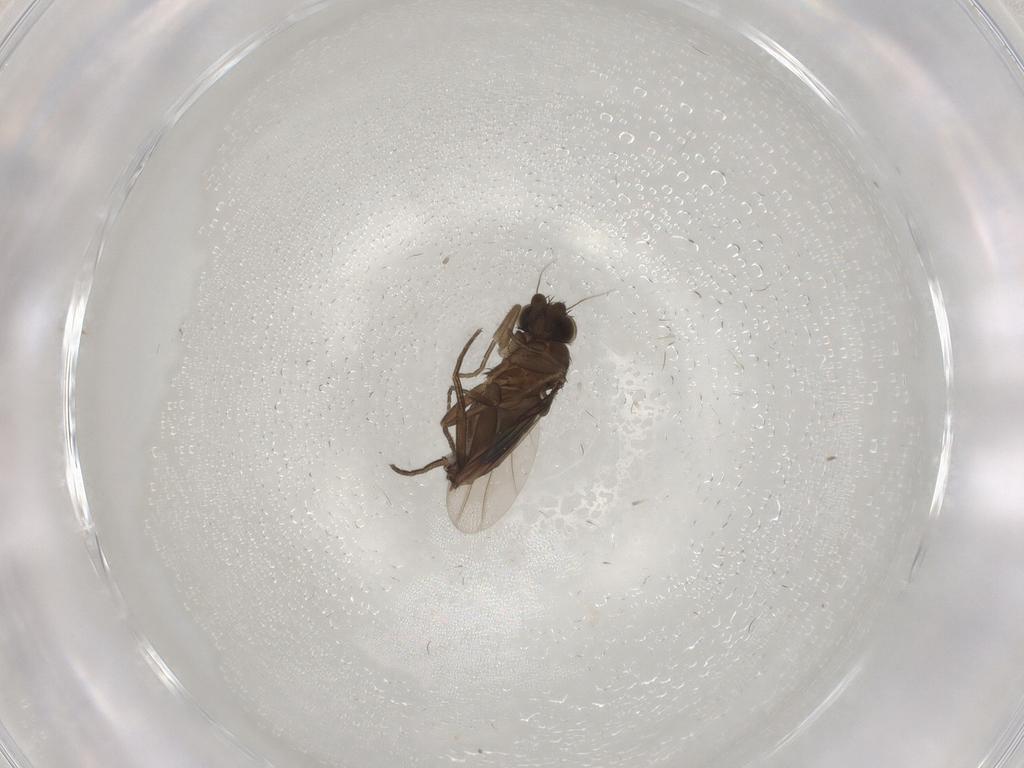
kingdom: Animalia
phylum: Arthropoda
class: Insecta
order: Diptera
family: Phoridae
